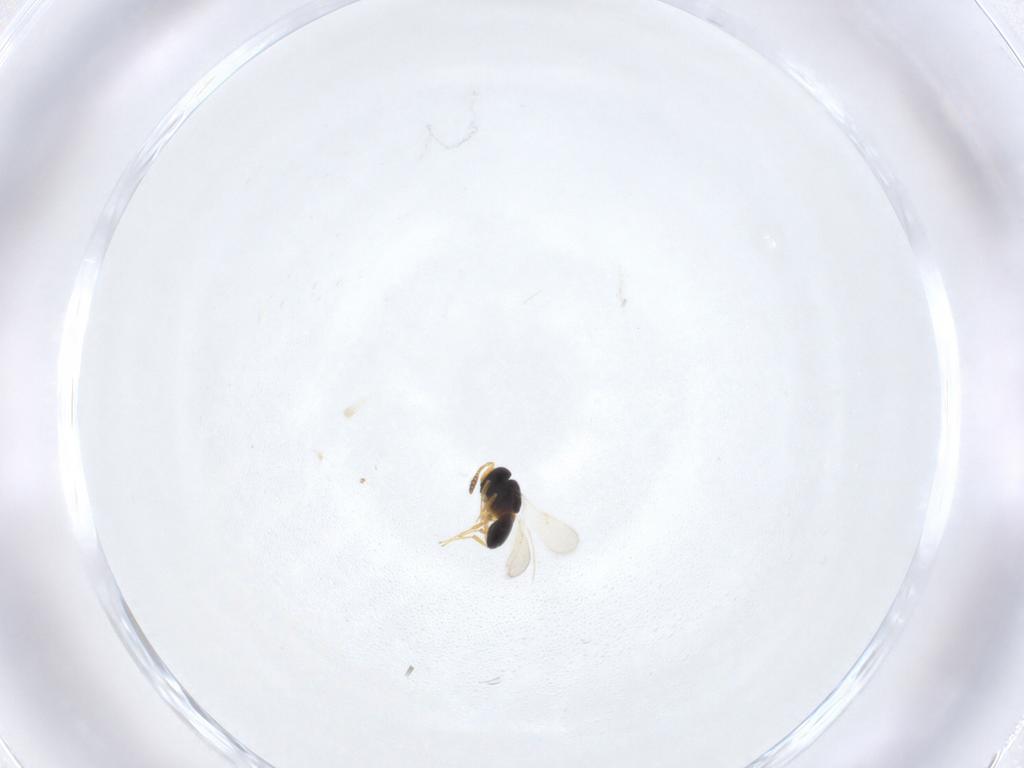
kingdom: Animalia
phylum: Arthropoda
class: Insecta
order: Hymenoptera
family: Scelionidae
